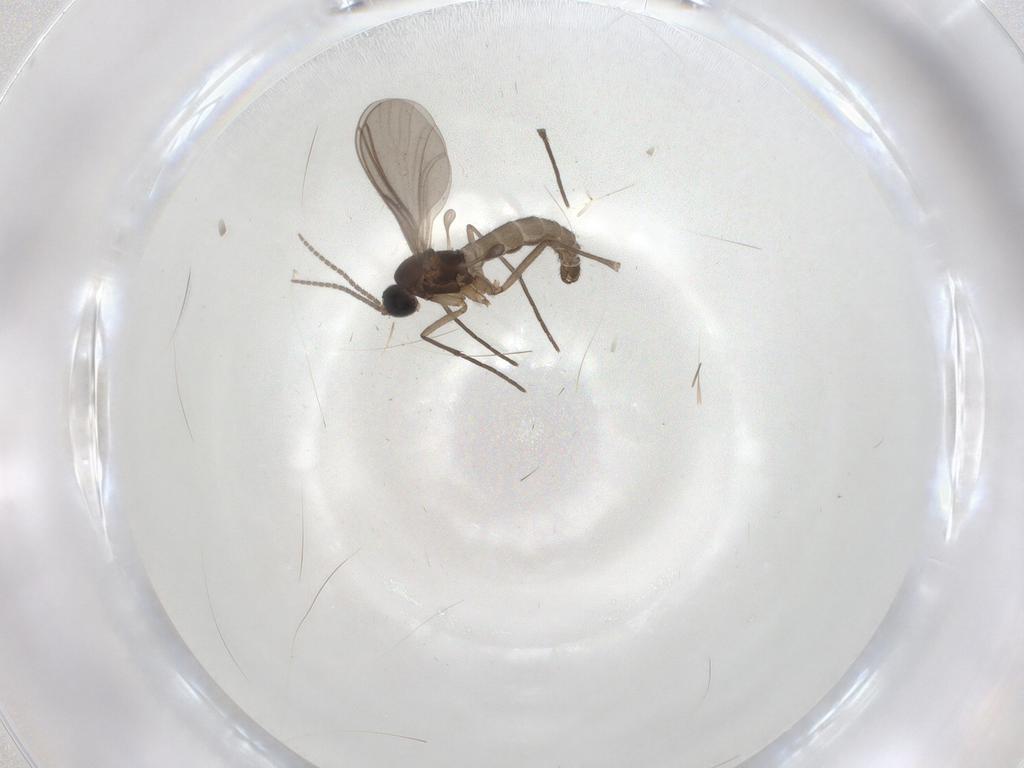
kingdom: Animalia
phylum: Arthropoda
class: Insecta
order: Diptera
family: Sciaridae
